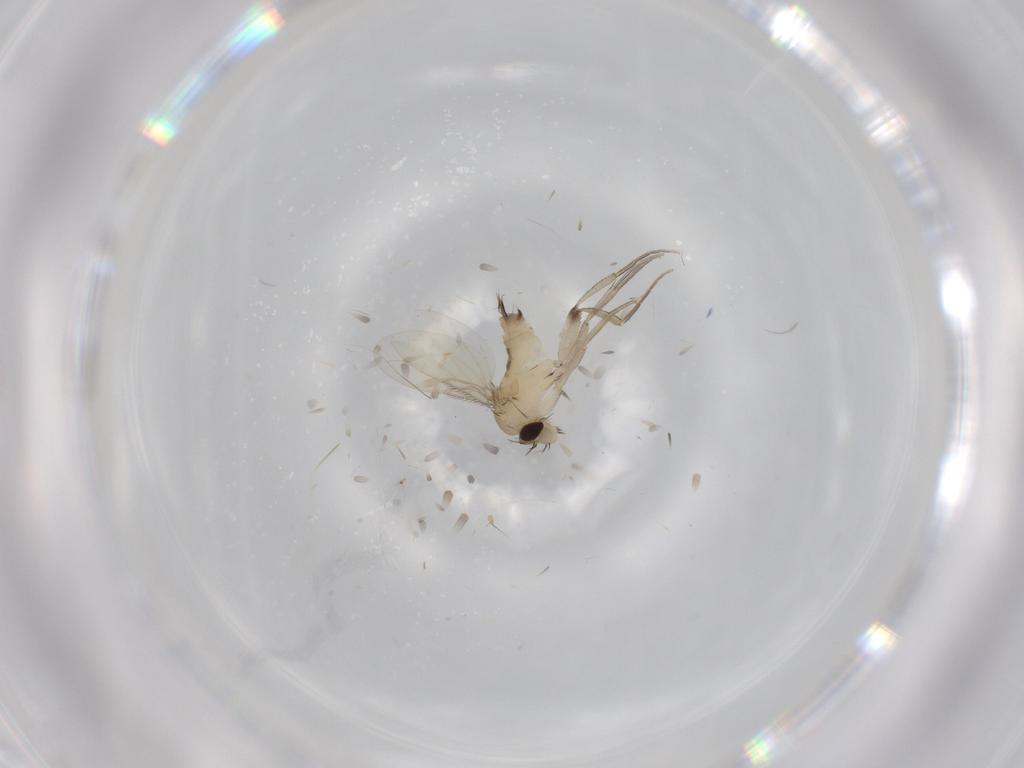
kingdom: Animalia
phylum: Arthropoda
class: Insecta
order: Diptera
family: Phoridae
